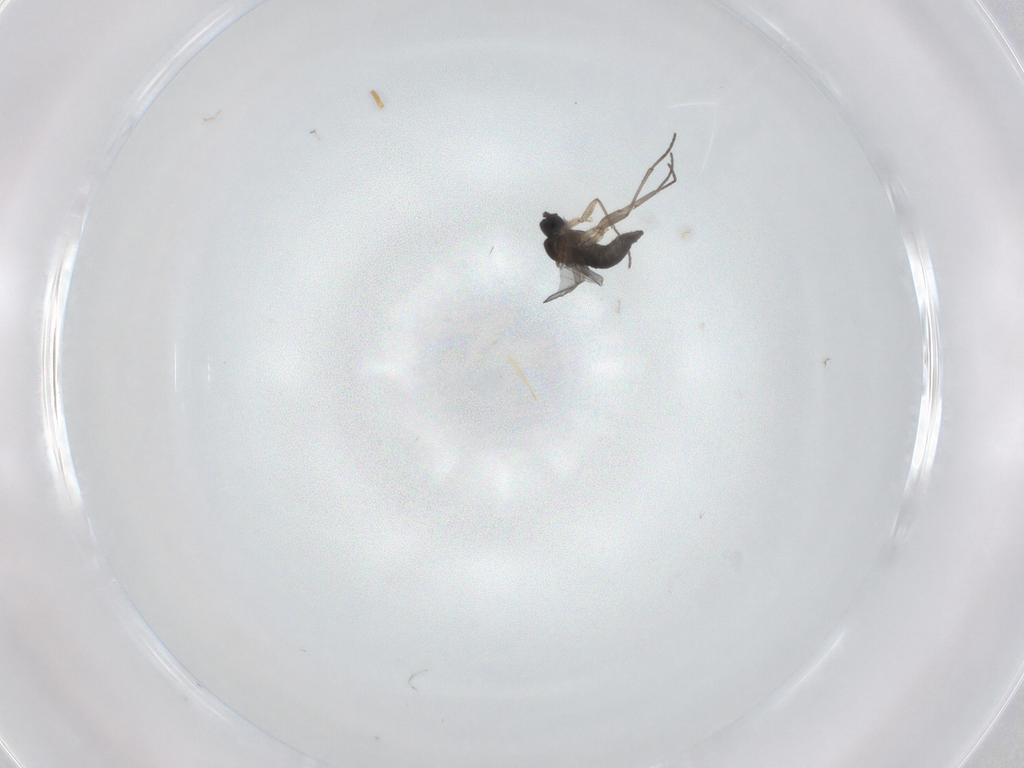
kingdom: Animalia
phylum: Arthropoda
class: Insecta
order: Diptera
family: Sciaridae
